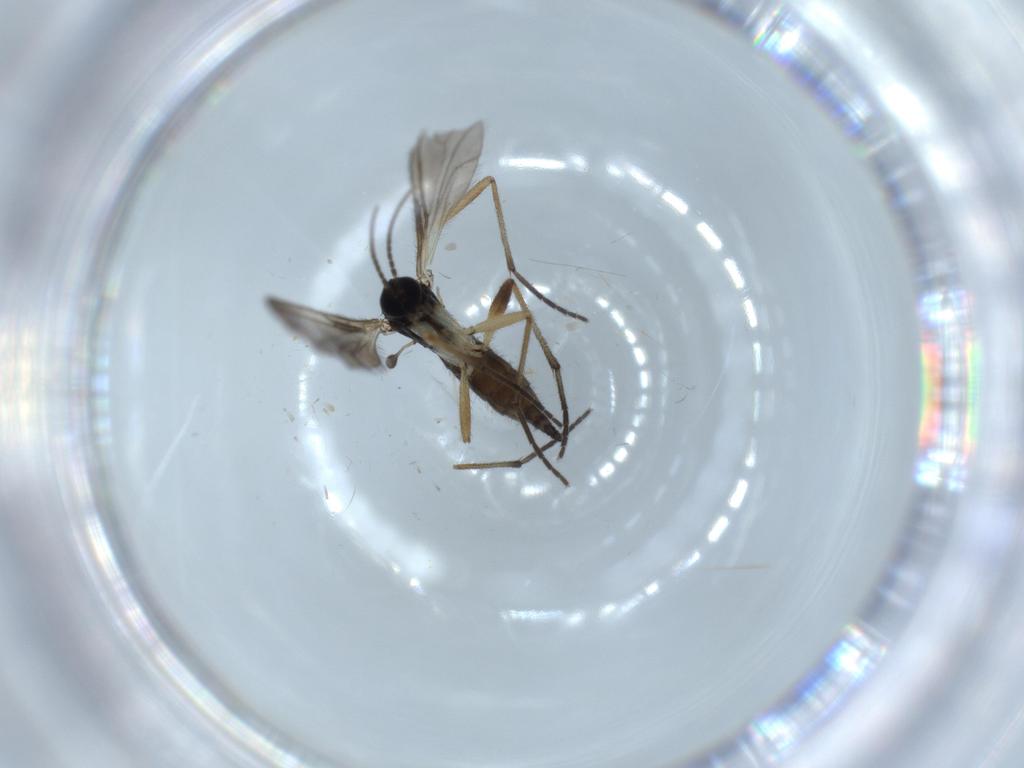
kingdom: Animalia
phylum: Arthropoda
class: Insecta
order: Diptera
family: Sciaridae
